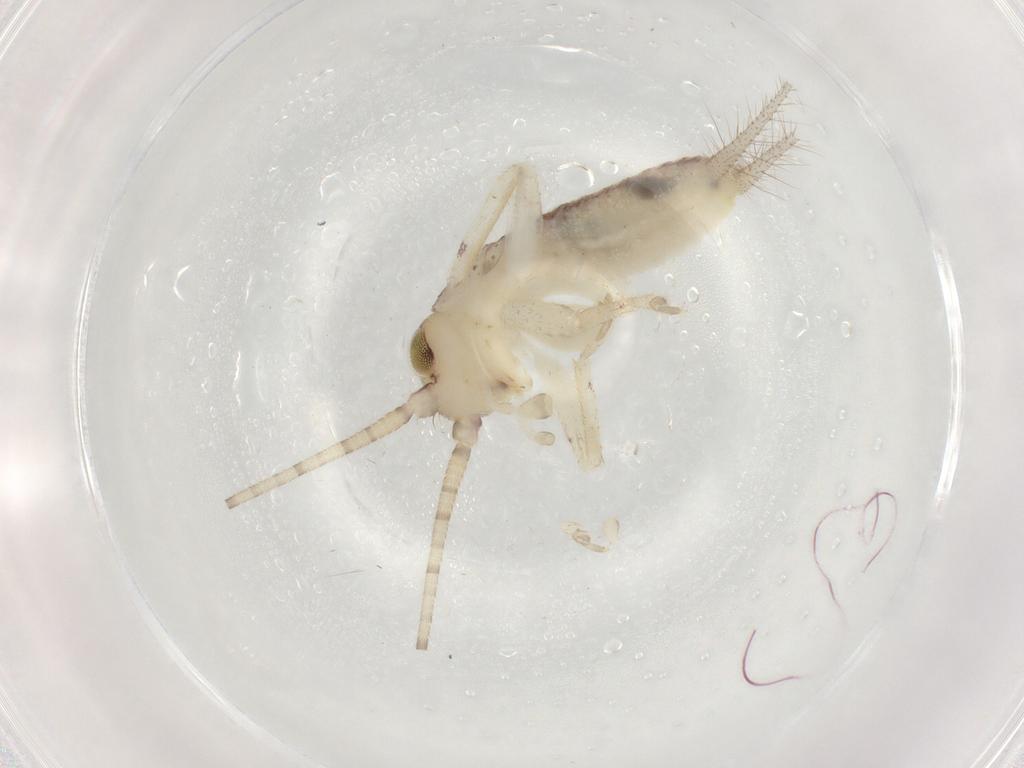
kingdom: Animalia
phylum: Arthropoda
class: Insecta
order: Orthoptera
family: Gryllidae
